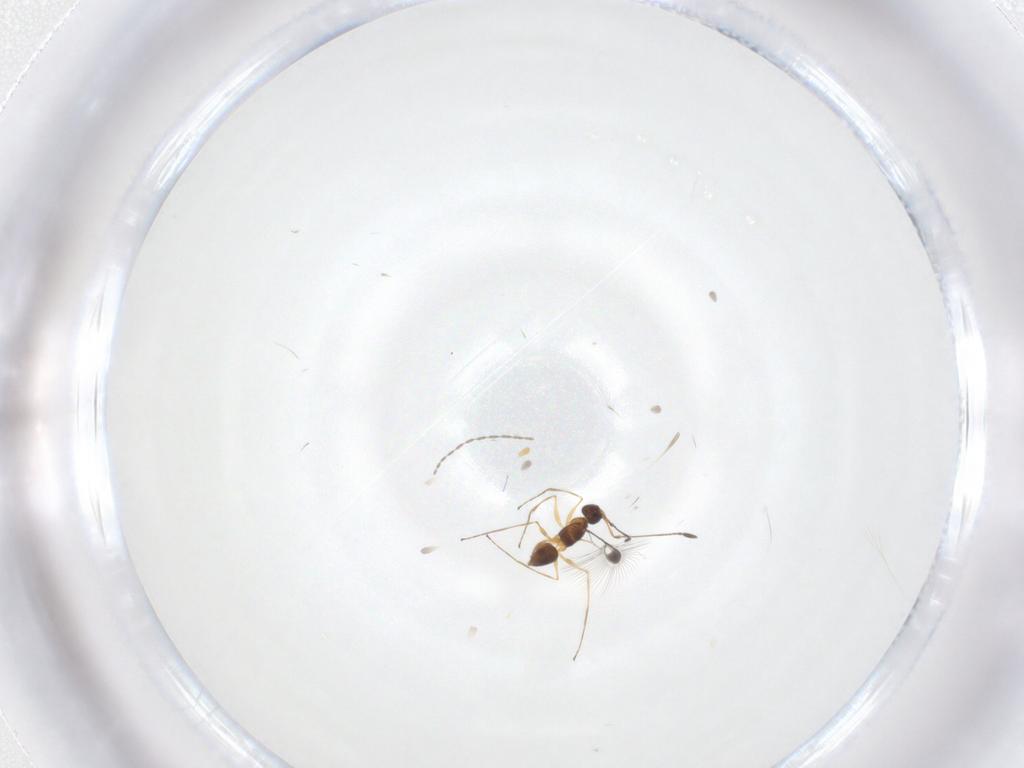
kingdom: Animalia
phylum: Arthropoda
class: Insecta
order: Hymenoptera
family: Mymaridae
